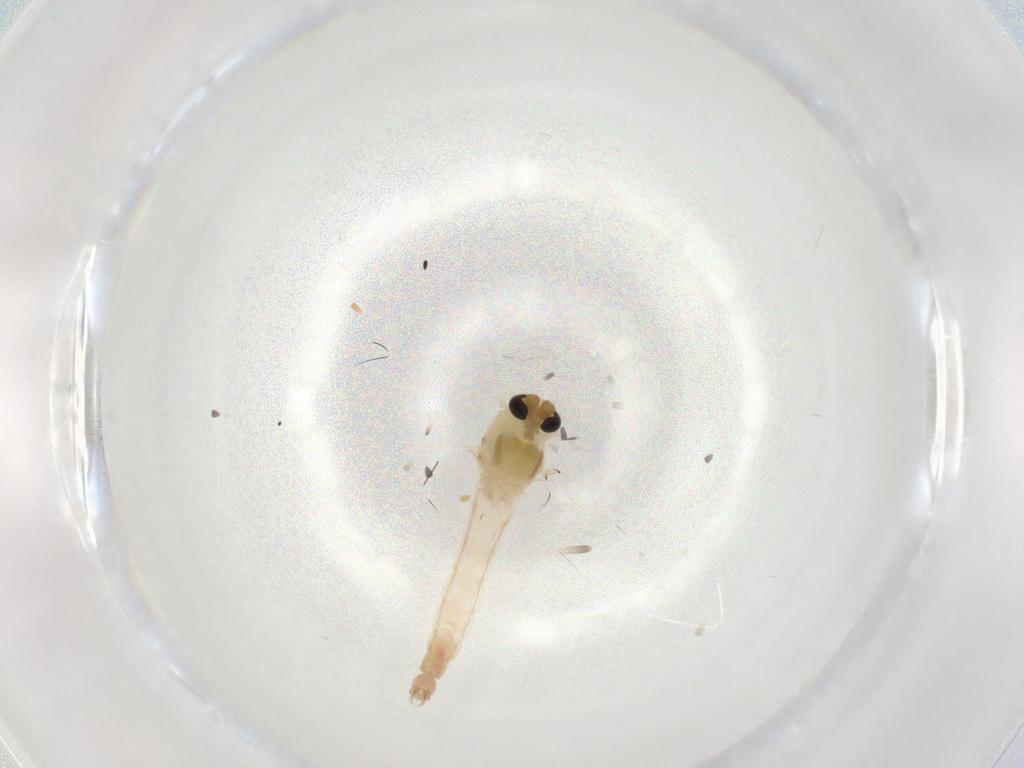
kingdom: Animalia
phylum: Arthropoda
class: Insecta
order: Diptera
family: Chironomidae
